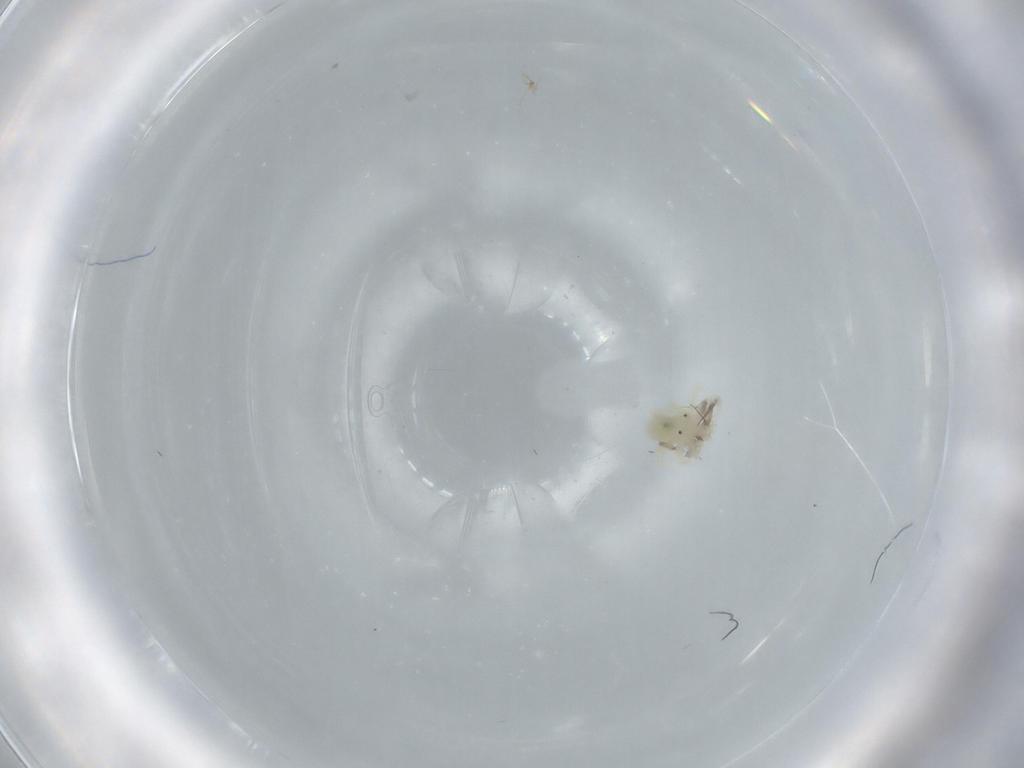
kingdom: Animalia
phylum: Arthropoda
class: Arachnida
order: Trombidiformes
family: Anystidae
